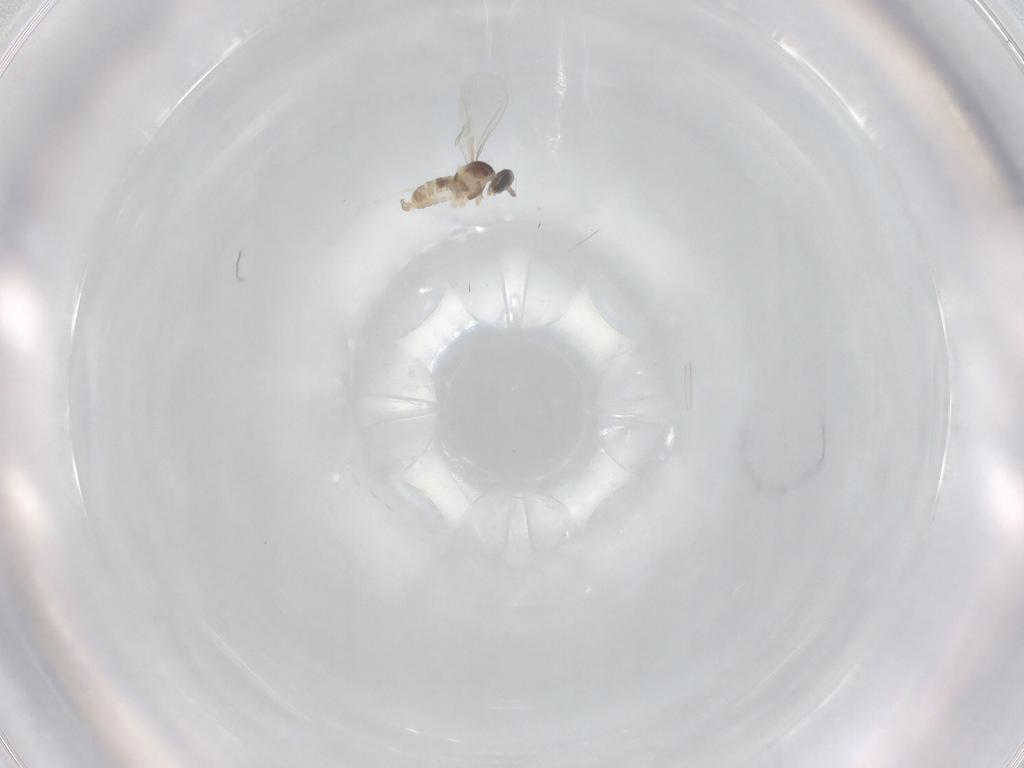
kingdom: Animalia
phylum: Arthropoda
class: Insecta
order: Diptera
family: Cecidomyiidae
